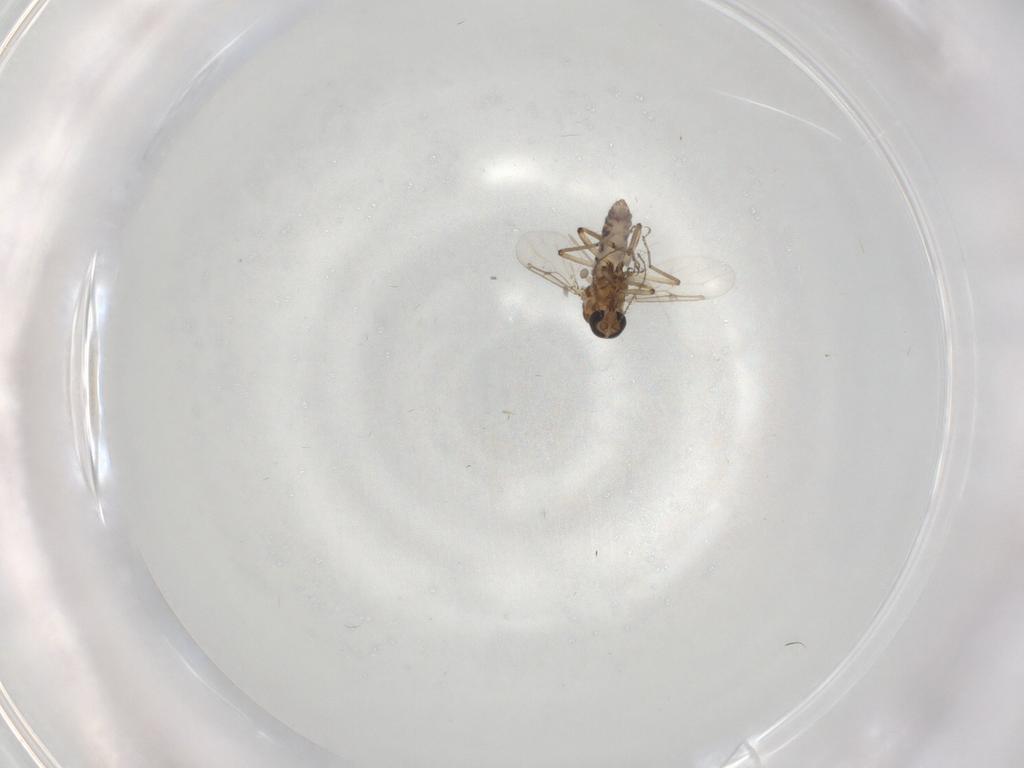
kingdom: Animalia
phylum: Arthropoda
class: Insecta
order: Diptera
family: Ceratopogonidae
